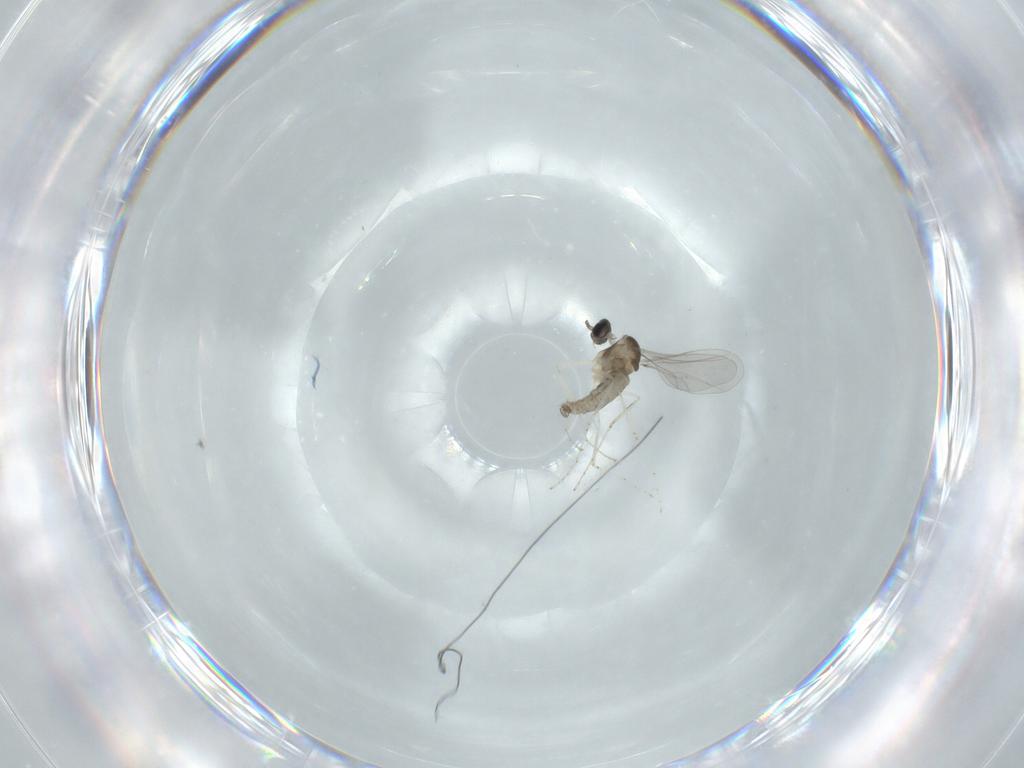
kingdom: Animalia
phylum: Arthropoda
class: Insecta
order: Diptera
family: Cecidomyiidae
